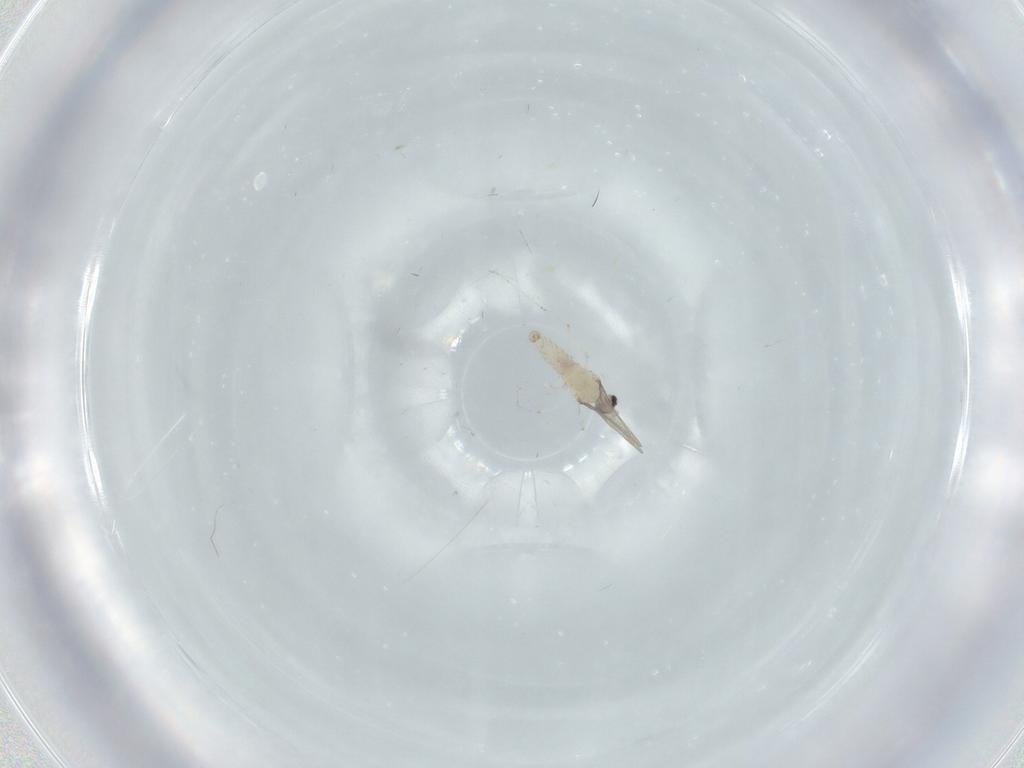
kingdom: Animalia
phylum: Arthropoda
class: Insecta
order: Diptera
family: Cecidomyiidae
